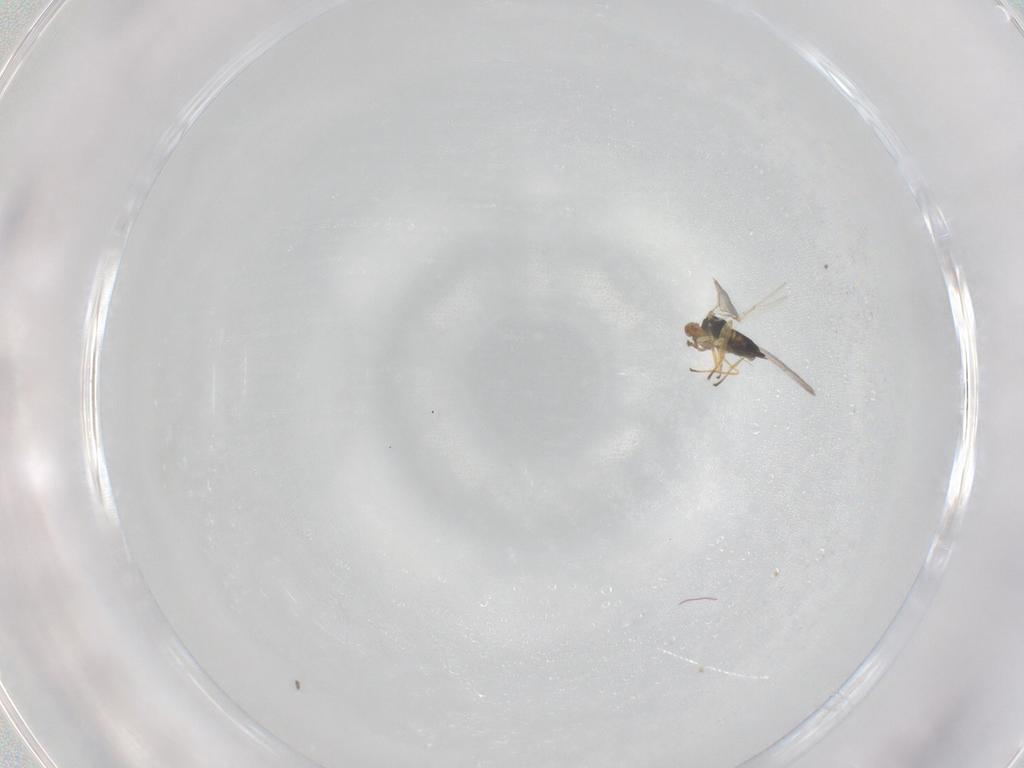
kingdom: Animalia
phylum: Arthropoda
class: Insecta
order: Hymenoptera
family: Eulophidae
